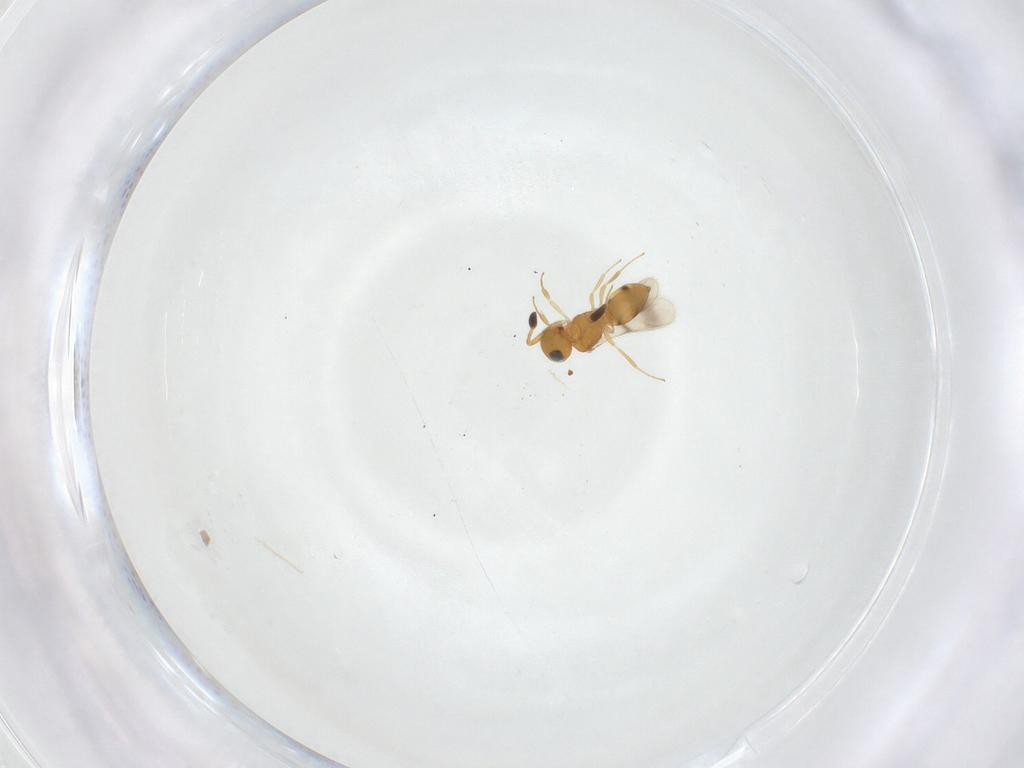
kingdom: Animalia
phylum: Arthropoda
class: Insecta
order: Hymenoptera
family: Scelionidae
